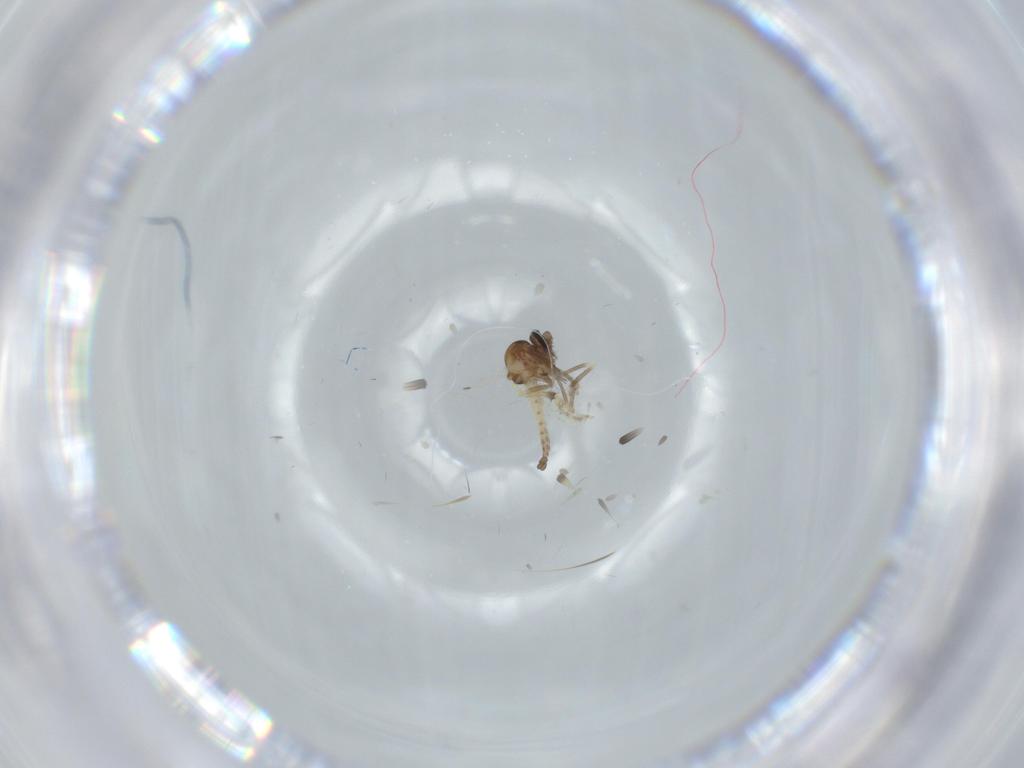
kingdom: Animalia
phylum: Arthropoda
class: Insecta
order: Diptera
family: Ceratopogonidae
